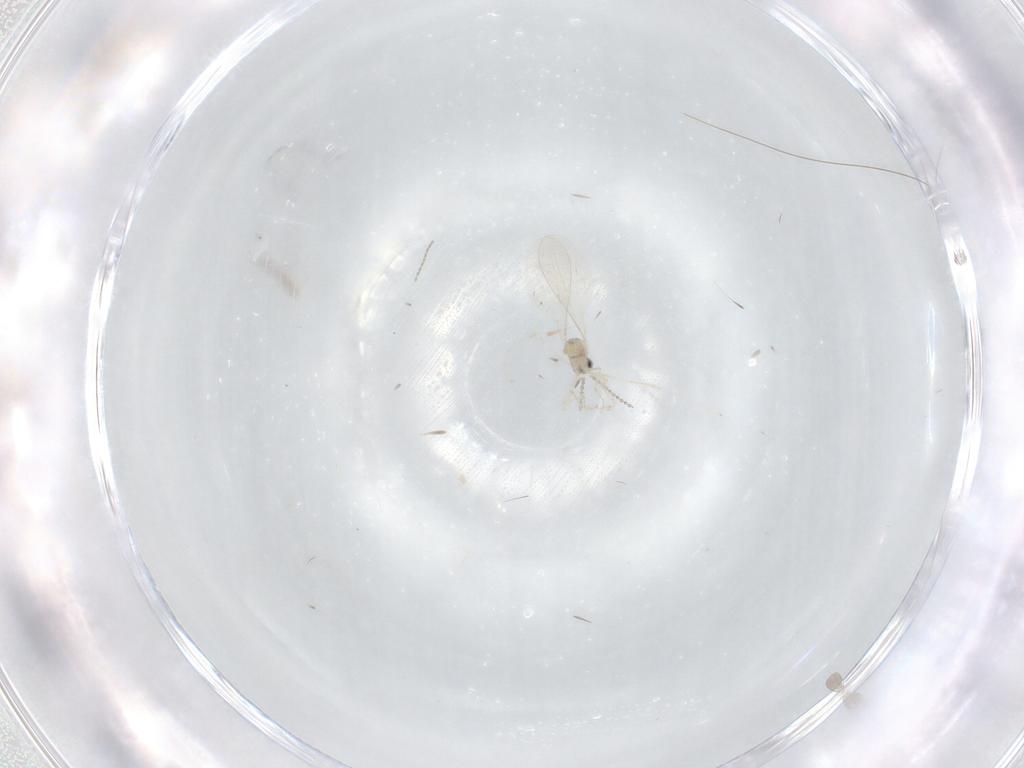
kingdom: Animalia
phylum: Arthropoda
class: Insecta
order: Diptera
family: Cecidomyiidae
